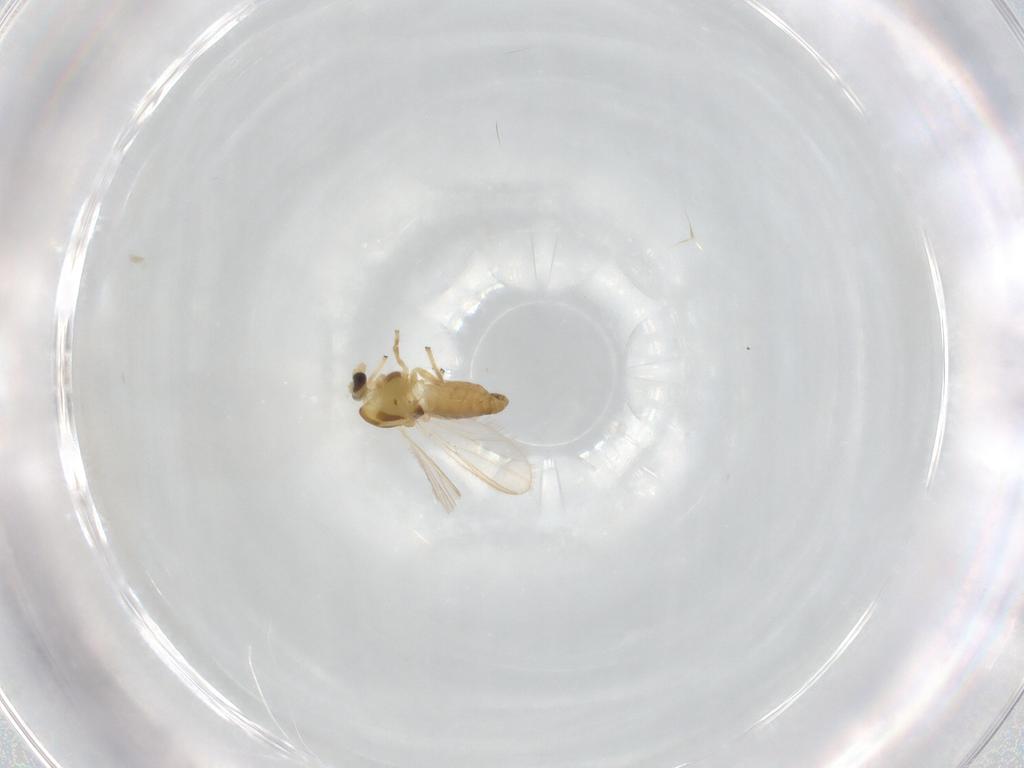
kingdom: Animalia
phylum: Arthropoda
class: Insecta
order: Diptera
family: Chironomidae
